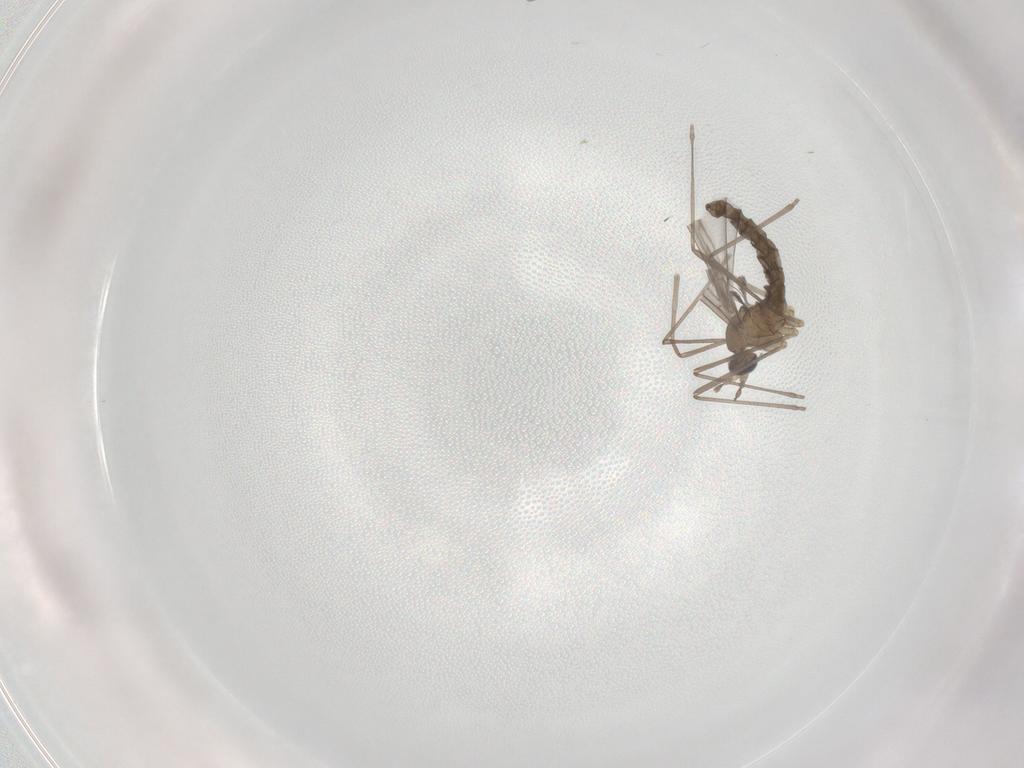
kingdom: Animalia
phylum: Arthropoda
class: Insecta
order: Diptera
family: Cecidomyiidae
